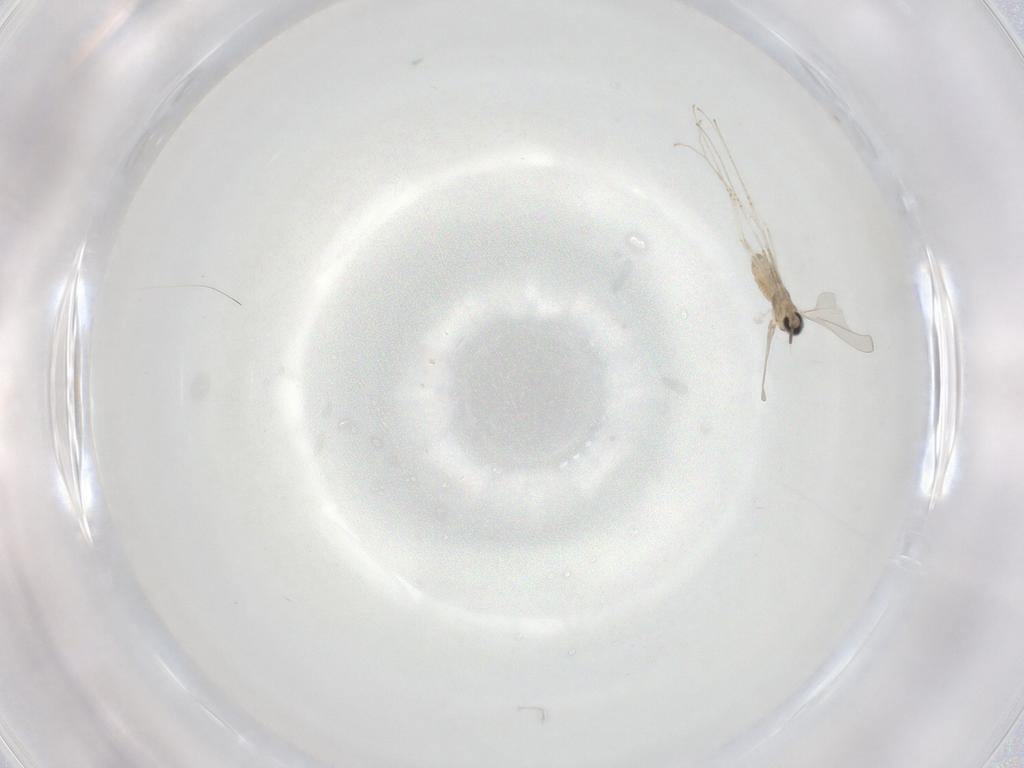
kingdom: Animalia
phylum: Arthropoda
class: Insecta
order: Diptera
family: Cecidomyiidae
